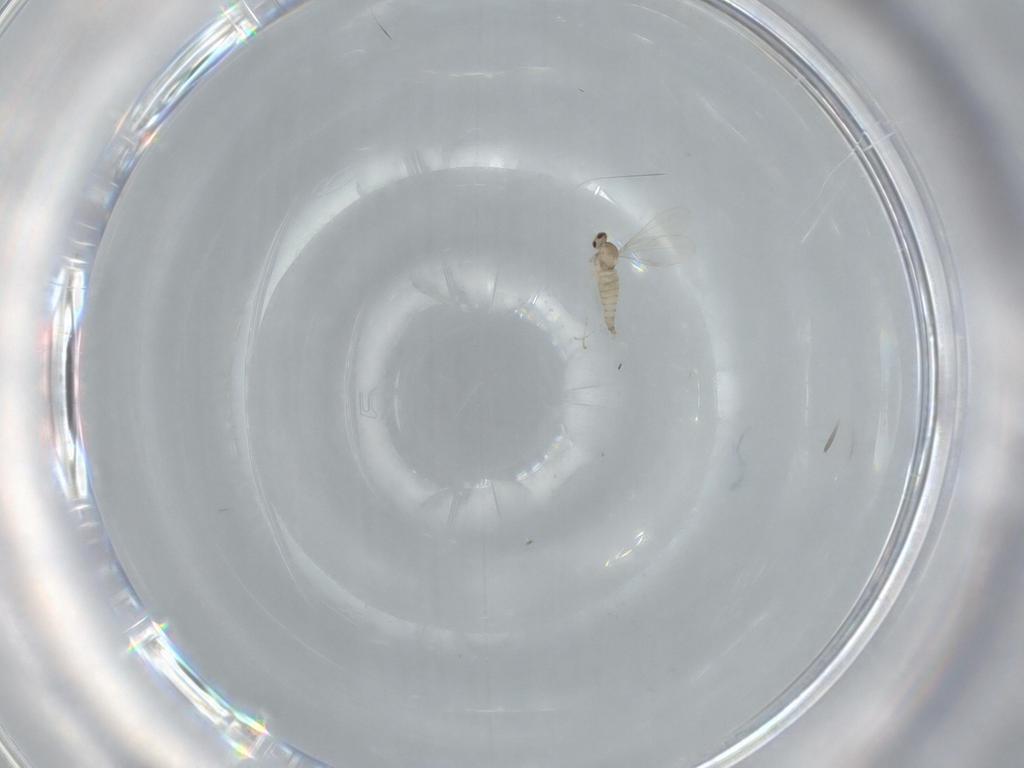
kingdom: Animalia
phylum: Arthropoda
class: Insecta
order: Diptera
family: Cecidomyiidae
